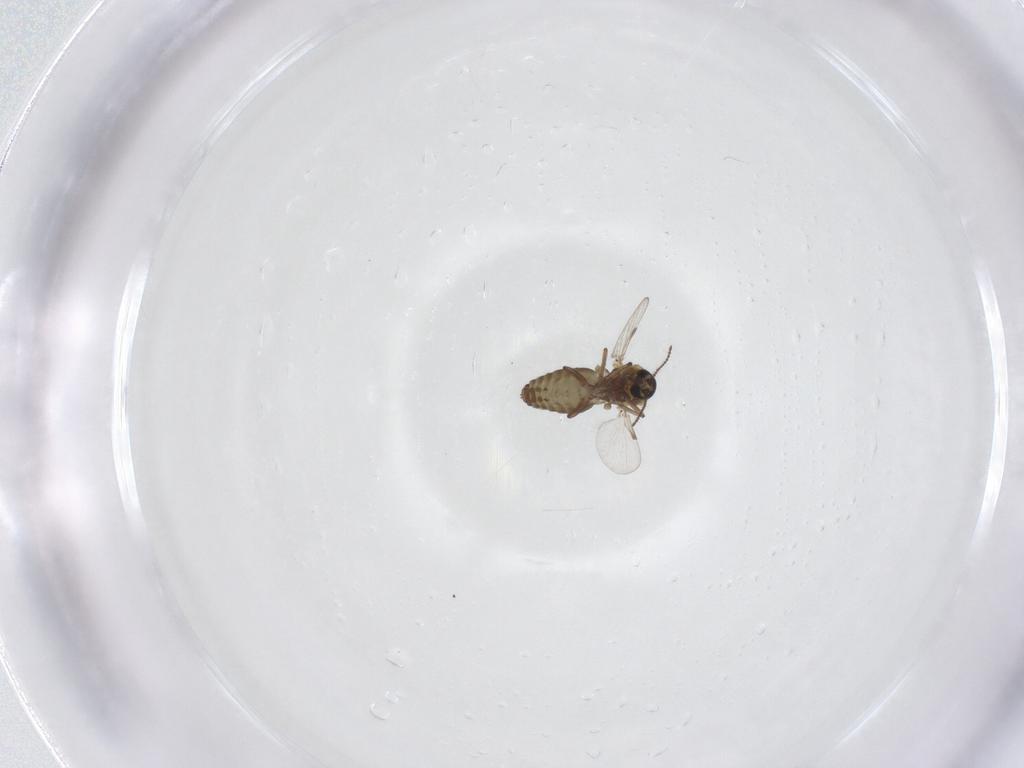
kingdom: Animalia
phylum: Arthropoda
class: Insecta
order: Diptera
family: Ceratopogonidae
